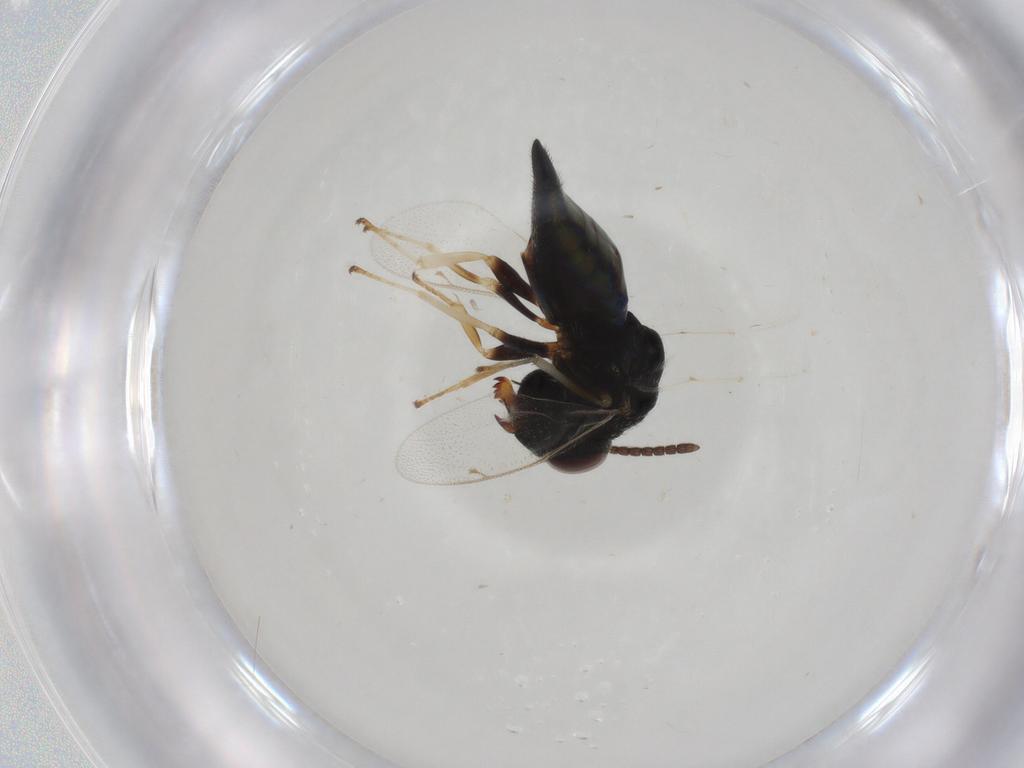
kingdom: Animalia
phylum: Arthropoda
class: Insecta
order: Hymenoptera
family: Pteromalidae
